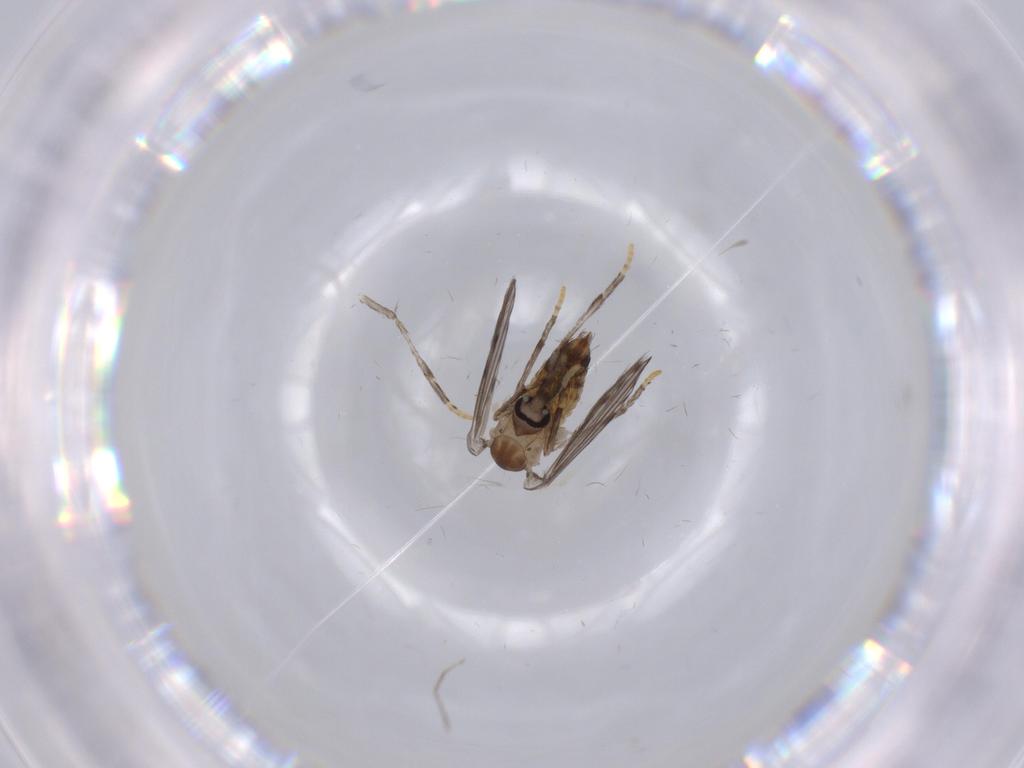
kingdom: Animalia
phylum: Arthropoda
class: Insecta
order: Diptera
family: Psychodidae
